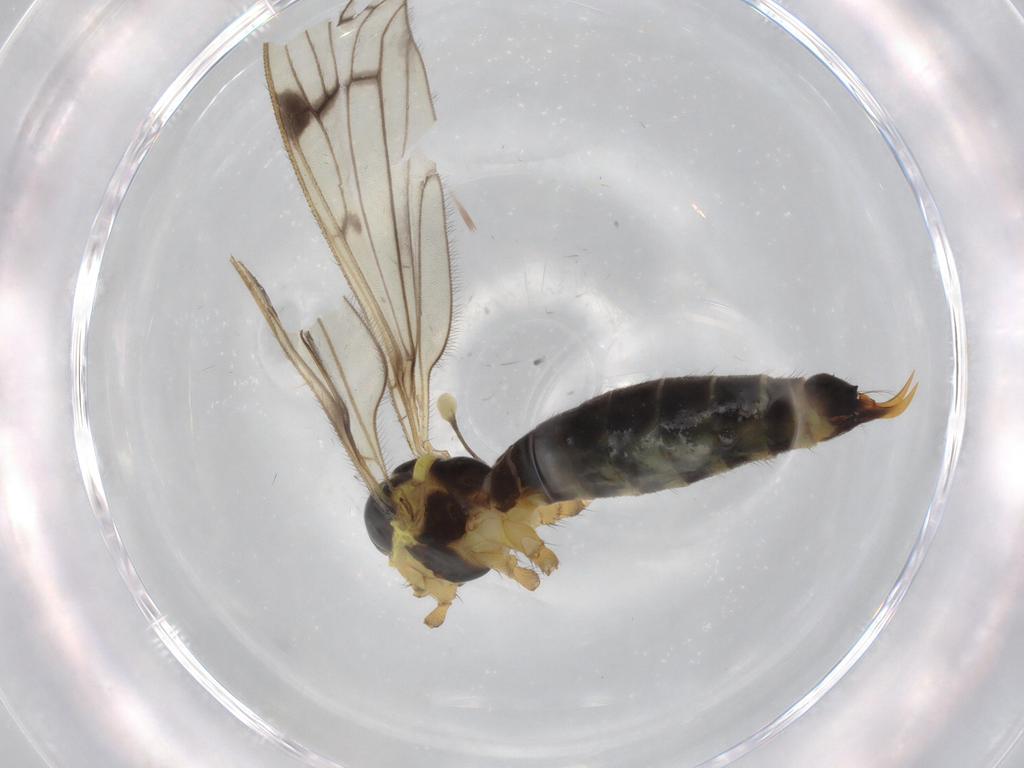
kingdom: Animalia
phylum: Arthropoda
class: Insecta
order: Diptera
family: Limoniidae
